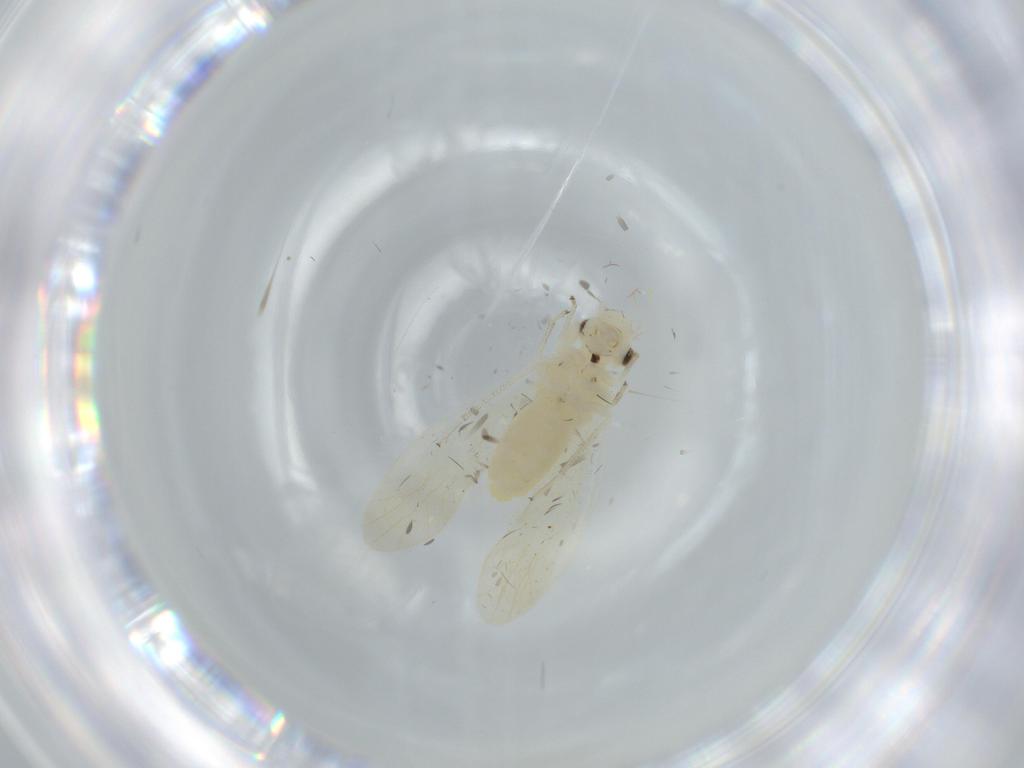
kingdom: Animalia
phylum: Arthropoda
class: Insecta
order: Psocodea
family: Caeciliusidae
